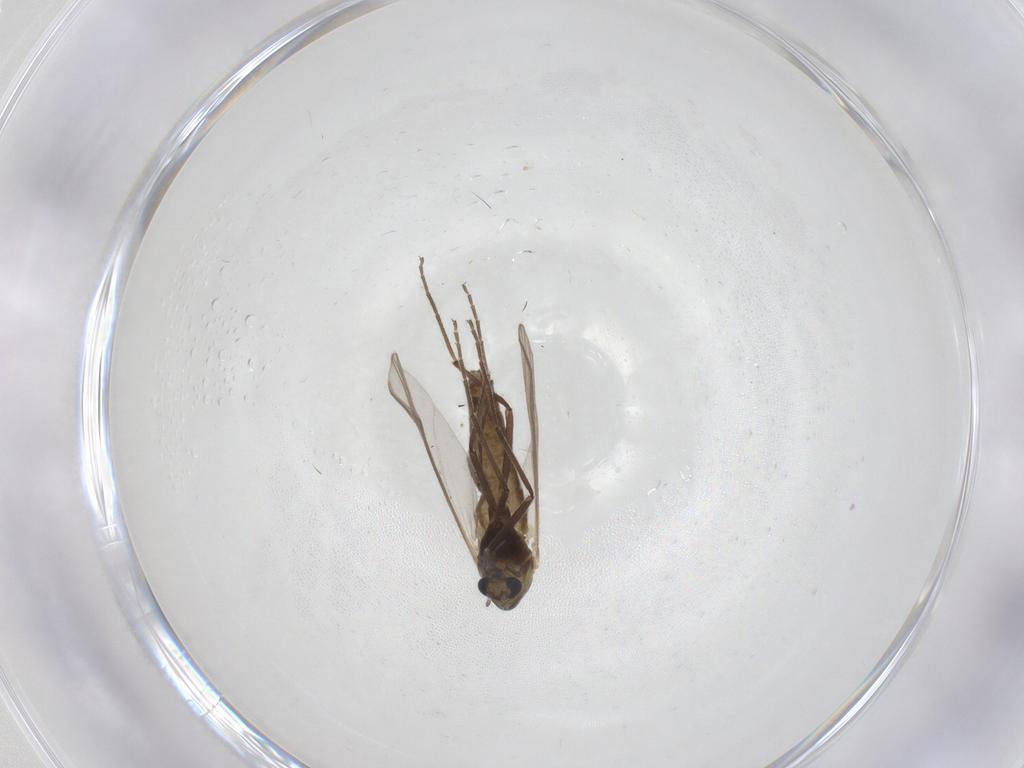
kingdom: Animalia
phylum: Arthropoda
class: Insecta
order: Diptera
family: Chironomidae
